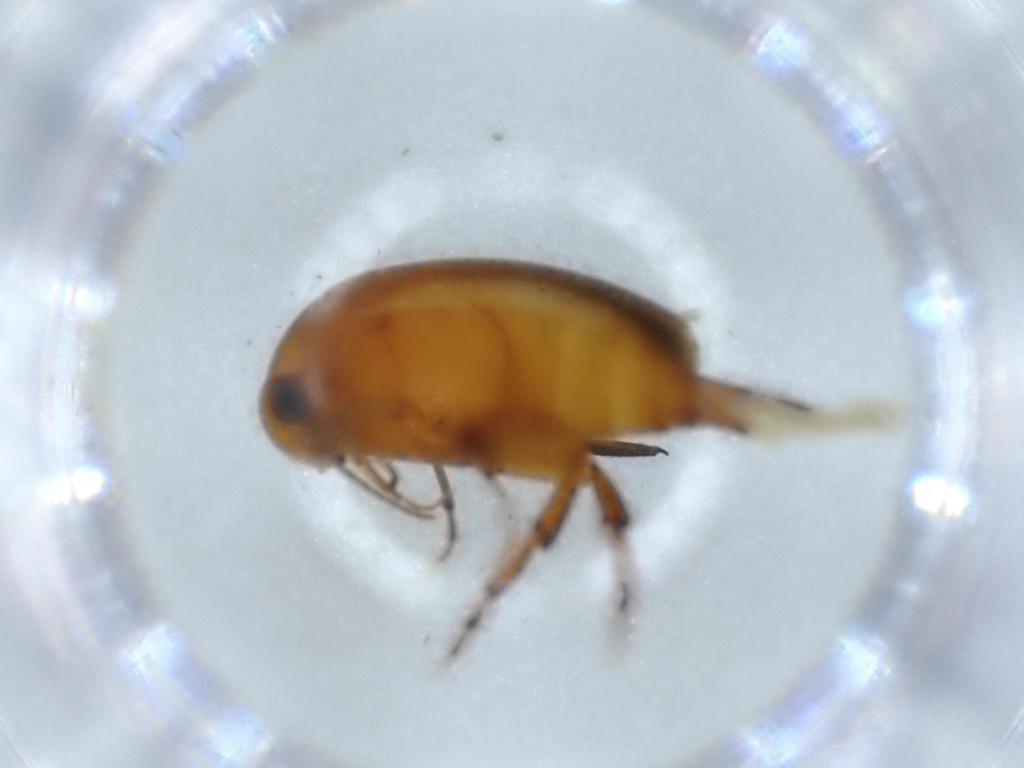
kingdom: Animalia
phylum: Arthropoda
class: Insecta
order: Coleoptera
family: Mordellidae
